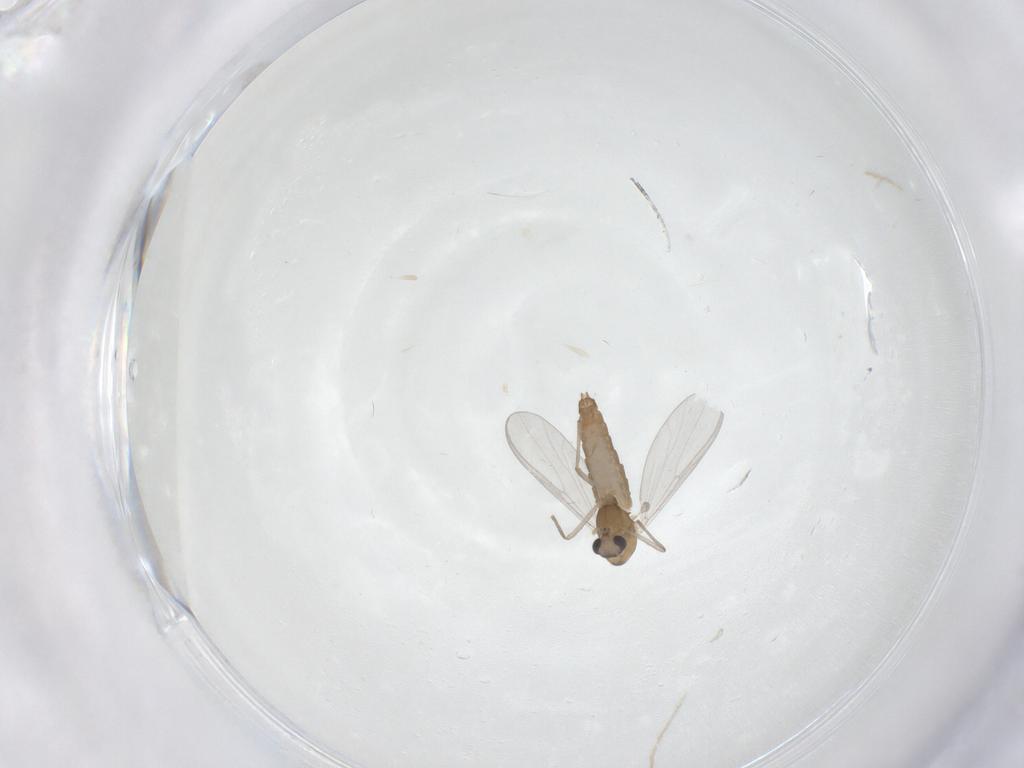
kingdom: Animalia
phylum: Arthropoda
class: Insecta
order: Diptera
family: Chironomidae
